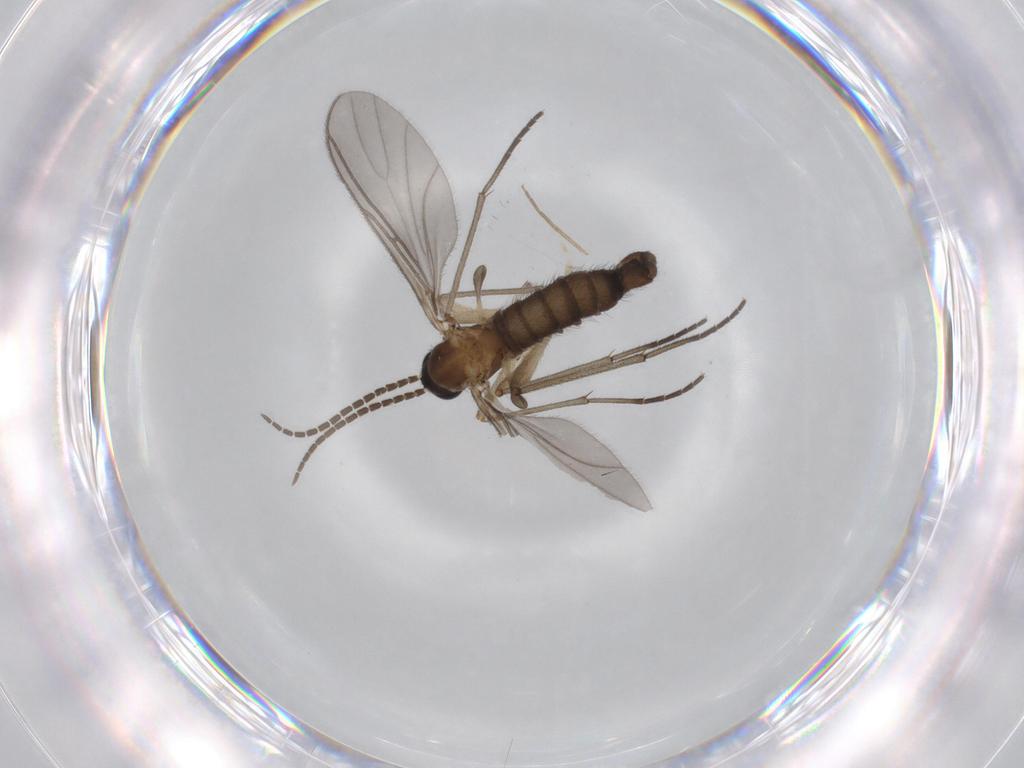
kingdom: Animalia
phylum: Arthropoda
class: Insecta
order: Diptera
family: Sciaridae
